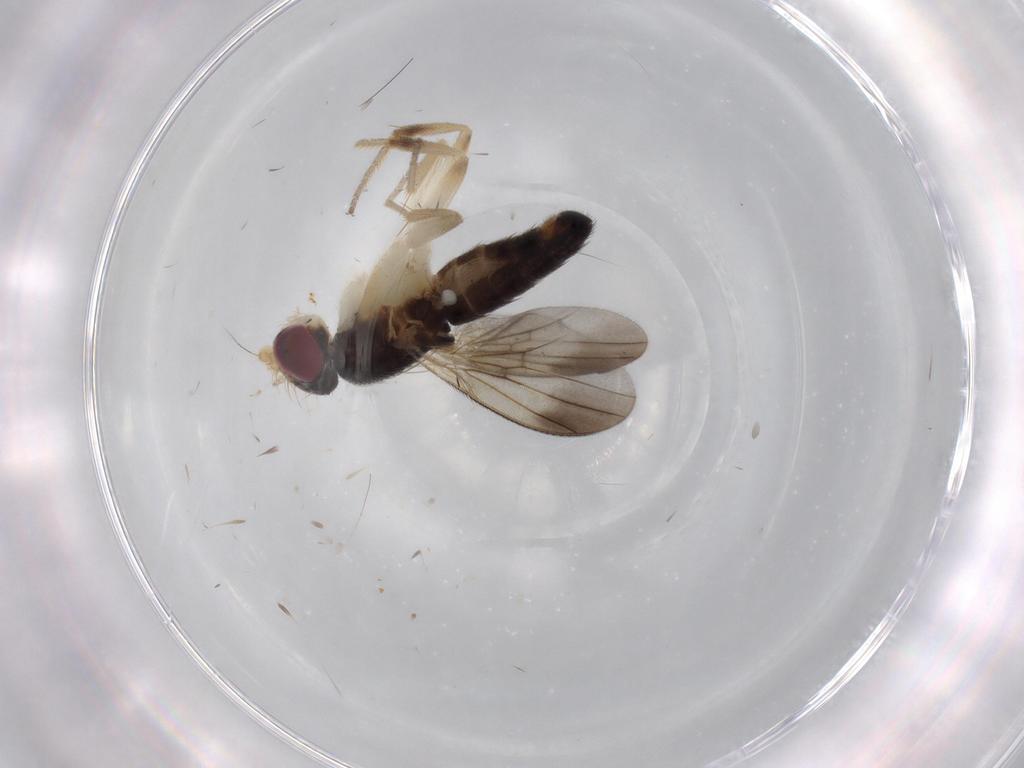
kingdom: Animalia
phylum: Arthropoda
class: Insecta
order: Diptera
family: Clusiidae
